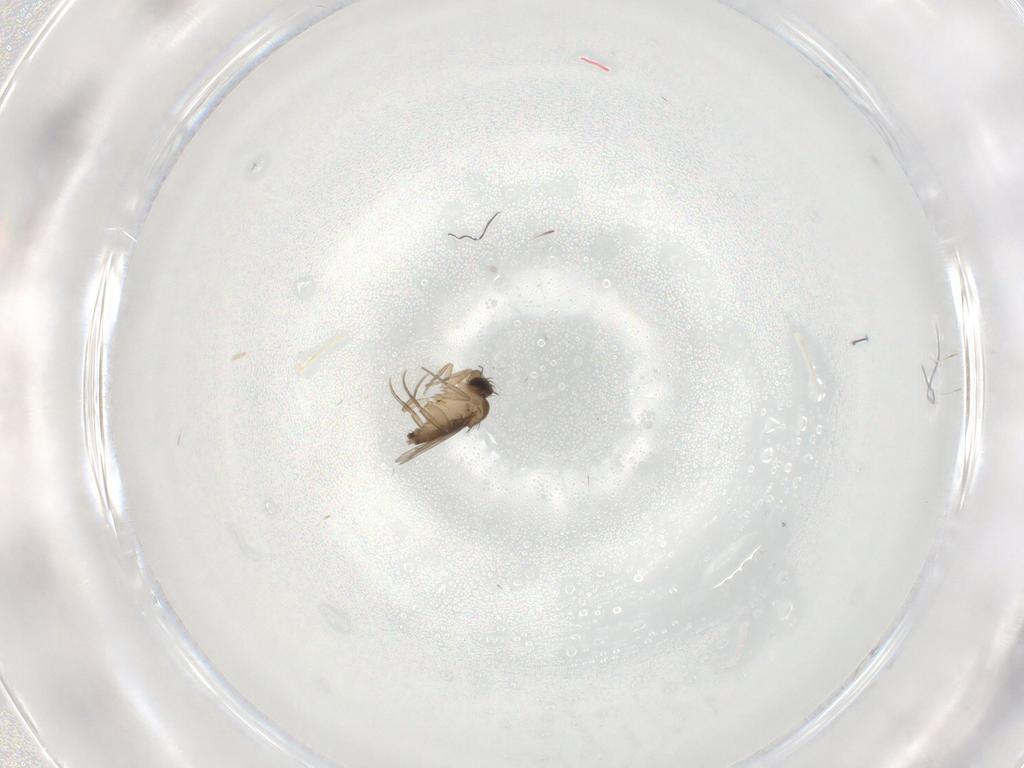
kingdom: Animalia
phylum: Arthropoda
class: Insecta
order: Diptera
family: Phoridae
